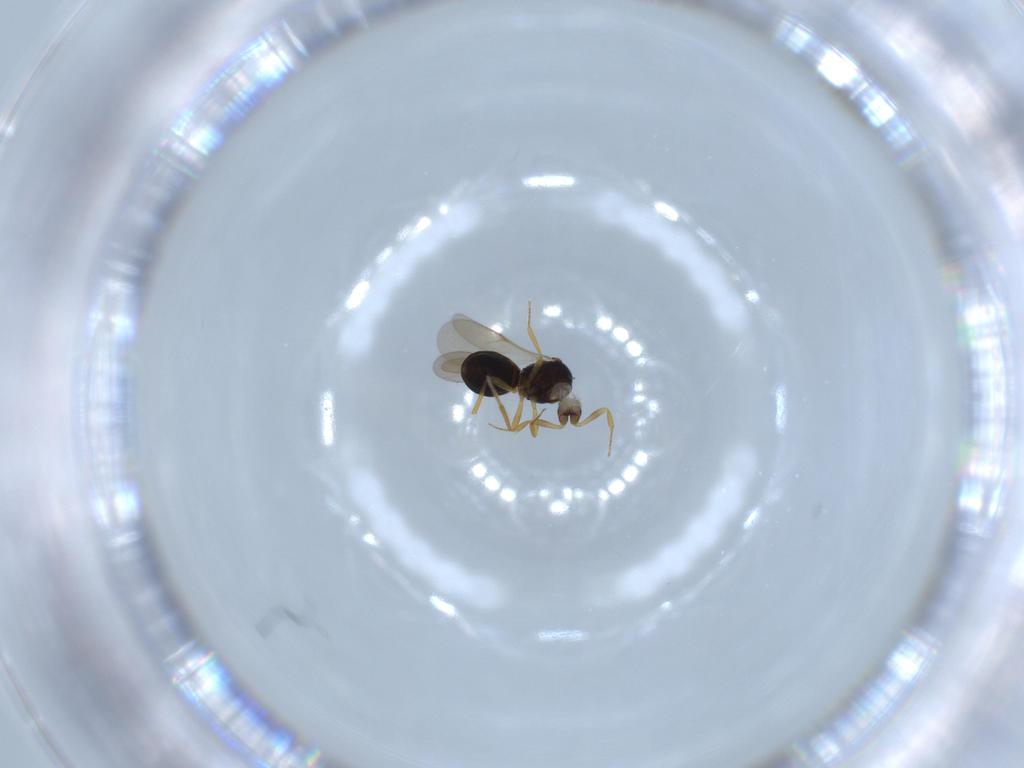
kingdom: Animalia
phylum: Arthropoda
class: Insecta
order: Hymenoptera
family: Scelionidae
